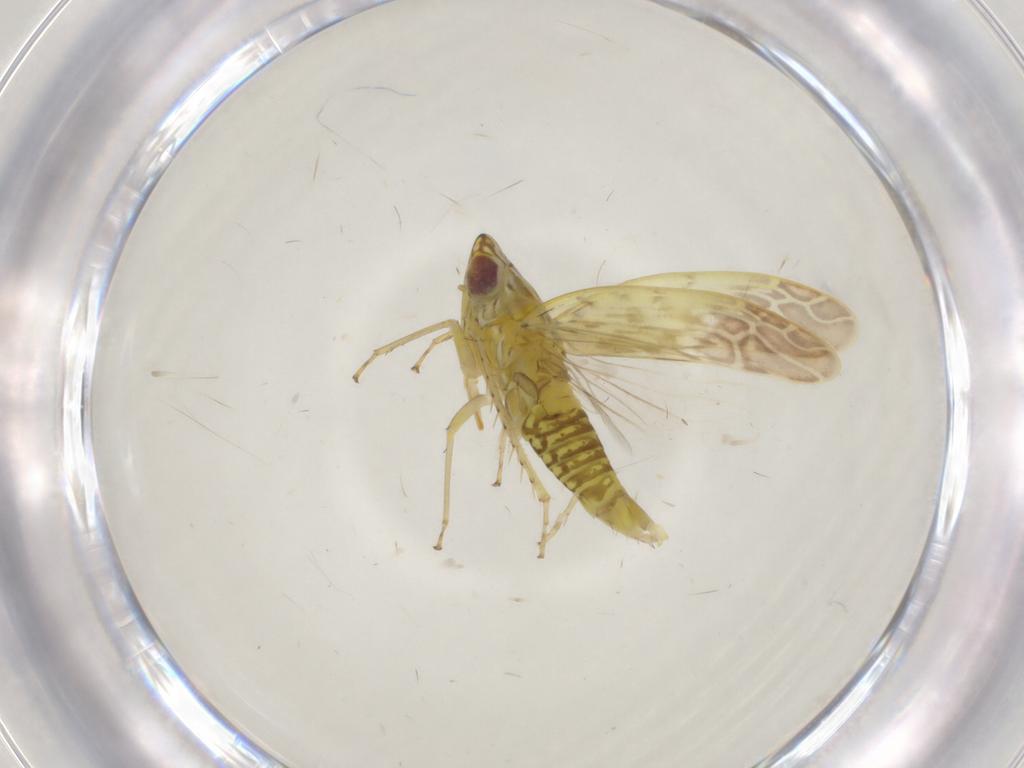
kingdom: Animalia
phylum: Arthropoda
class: Insecta
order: Hemiptera
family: Cicadellidae
